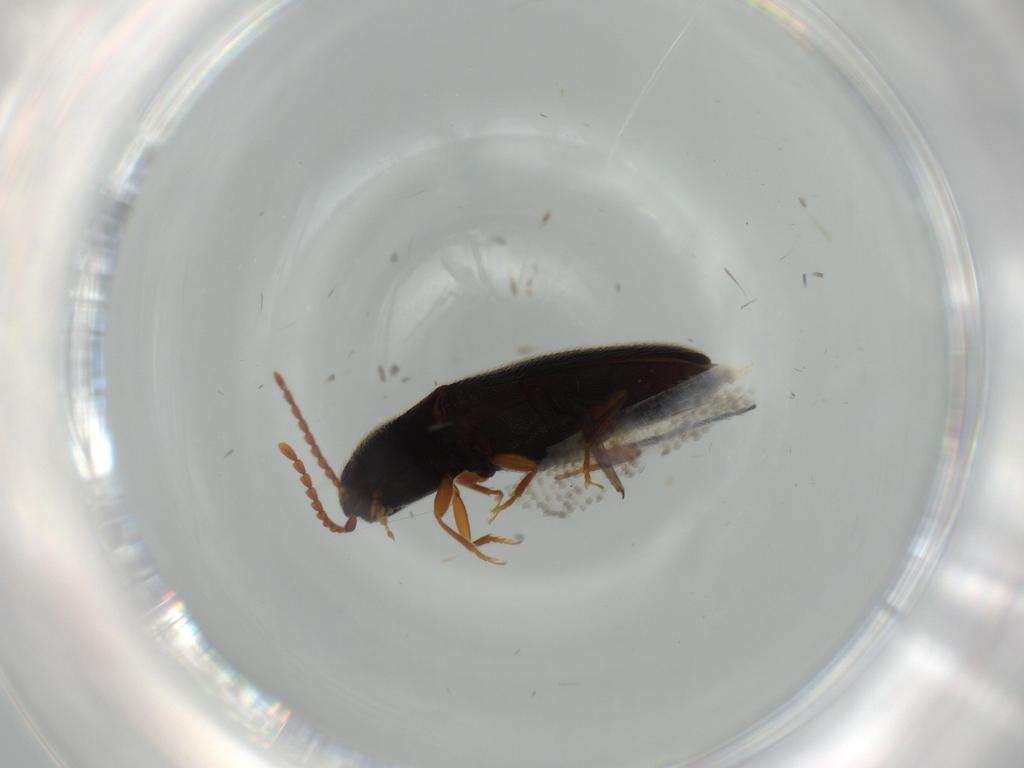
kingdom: Animalia
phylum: Arthropoda
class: Insecta
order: Coleoptera
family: Elateridae
